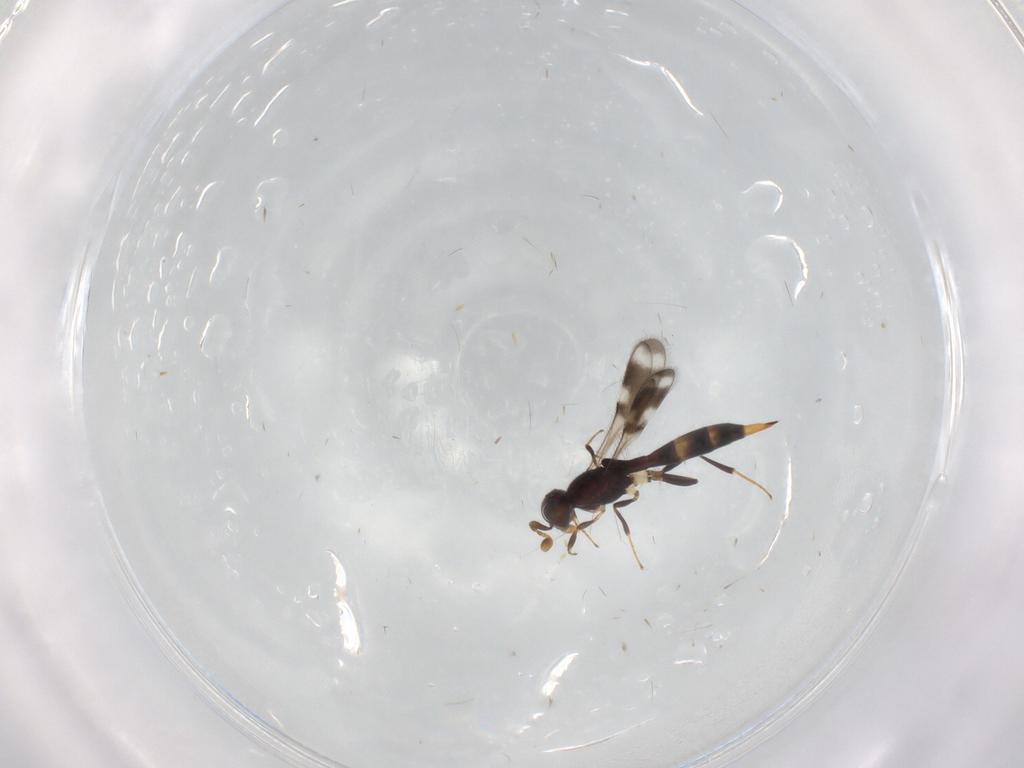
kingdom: Animalia
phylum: Arthropoda
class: Insecta
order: Hymenoptera
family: Scelionidae
